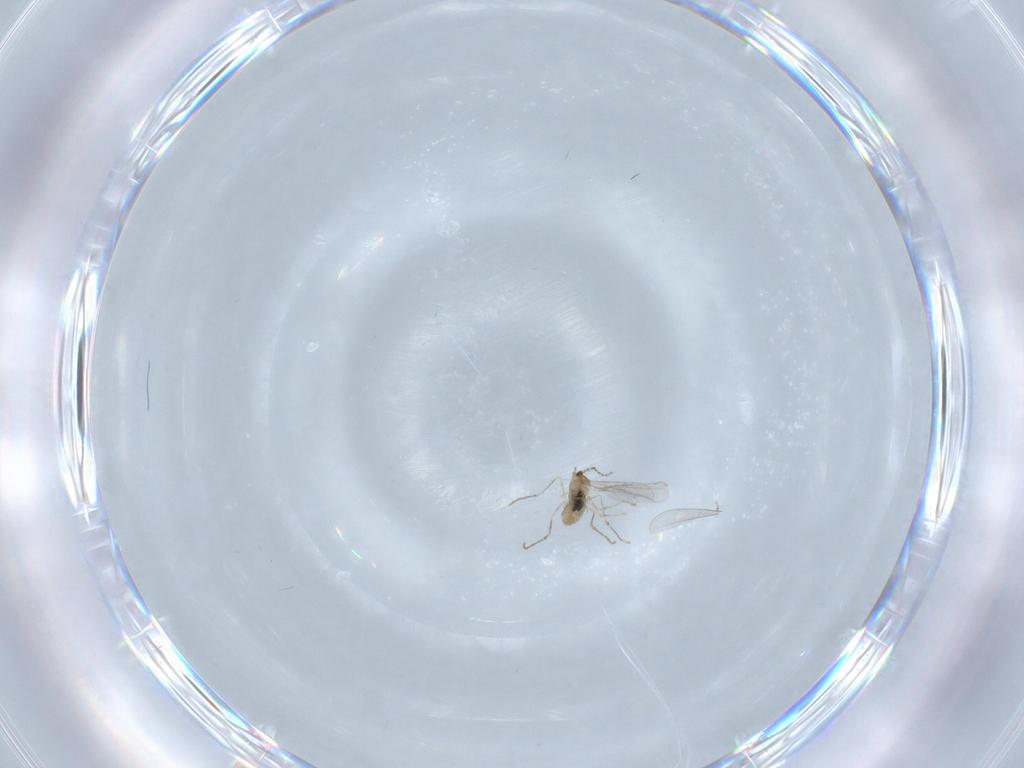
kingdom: Animalia
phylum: Arthropoda
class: Insecta
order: Diptera
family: Cecidomyiidae
